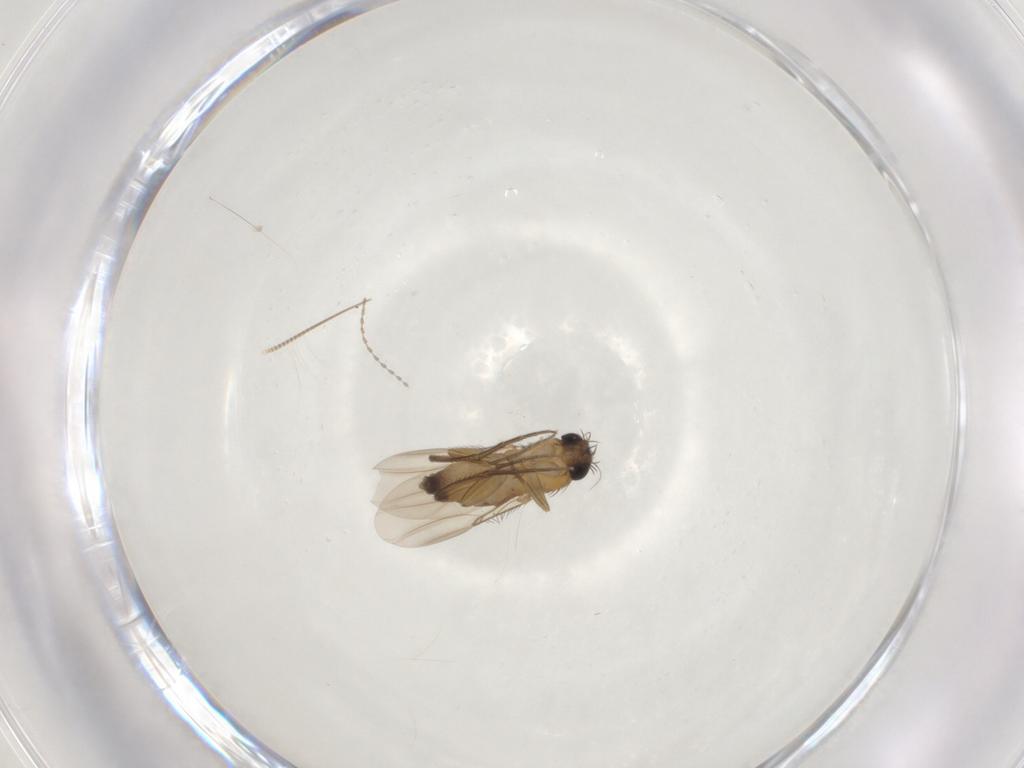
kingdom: Animalia
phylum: Arthropoda
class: Insecta
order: Diptera
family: Phoridae
